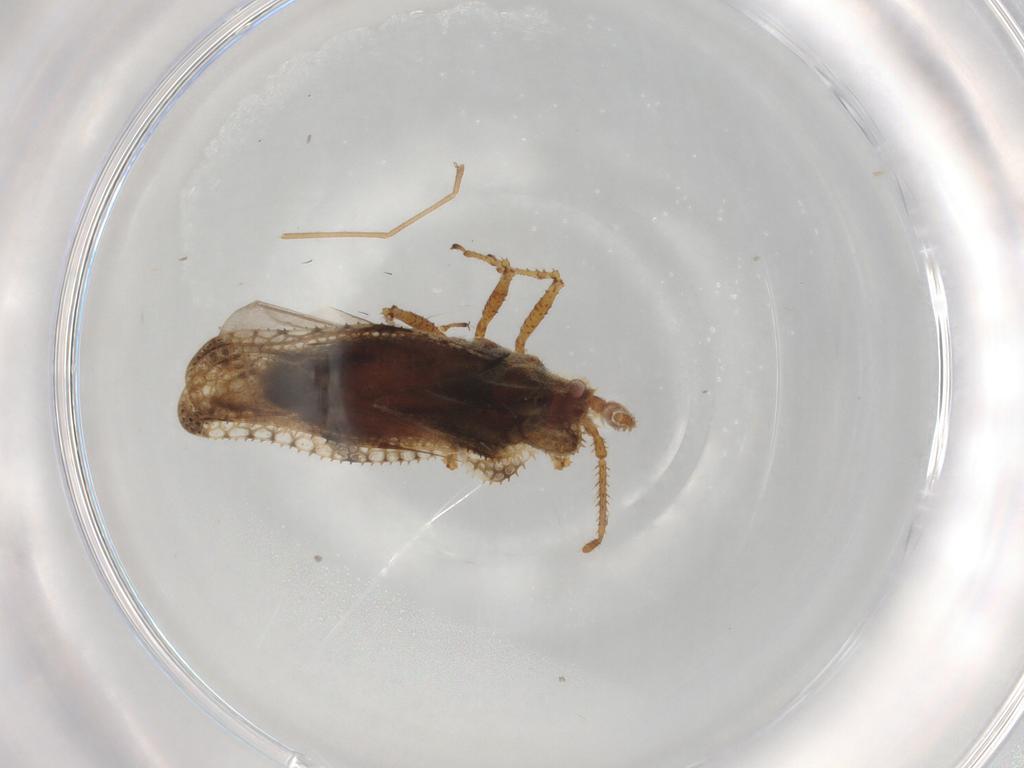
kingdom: Animalia
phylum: Arthropoda
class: Insecta
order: Hemiptera
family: Tingidae
